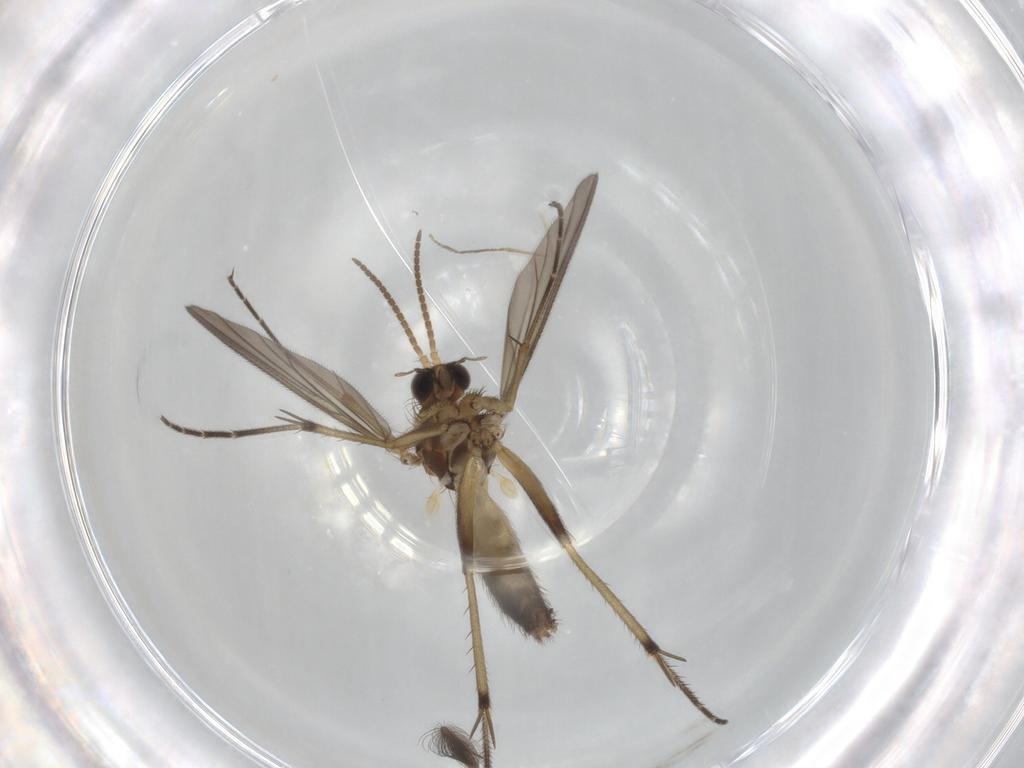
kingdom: Animalia
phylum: Arthropoda
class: Insecta
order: Diptera
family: Ceratopogonidae
